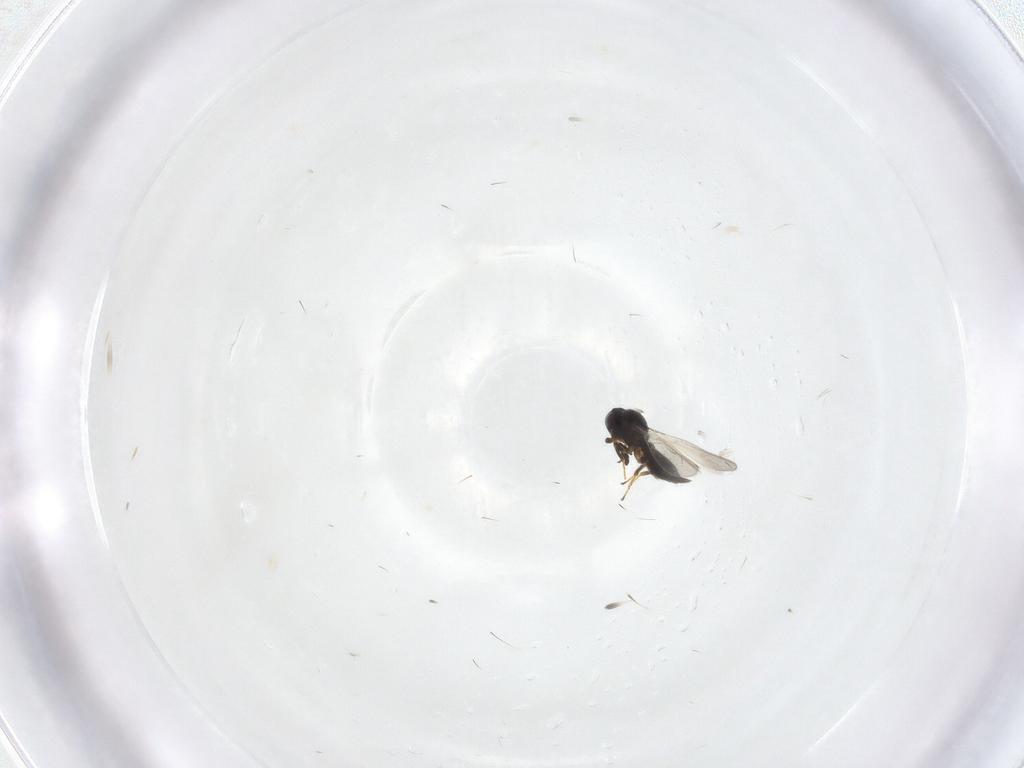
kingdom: Animalia
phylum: Arthropoda
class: Insecta
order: Hymenoptera
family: Platygastridae
